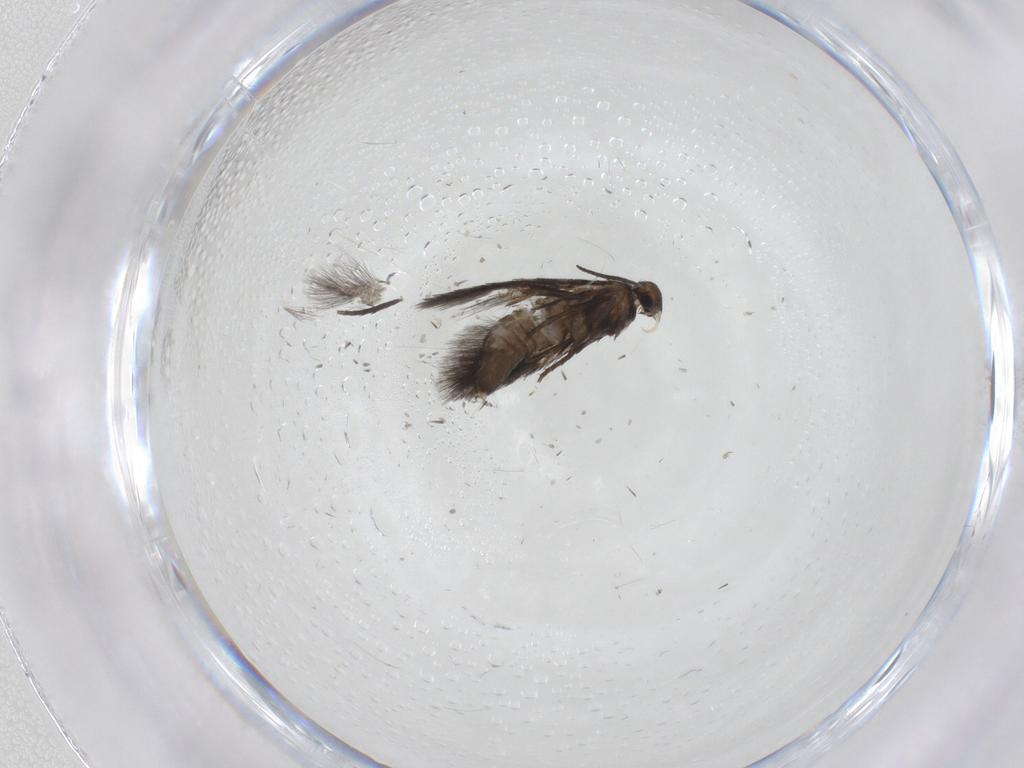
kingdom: Animalia
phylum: Arthropoda
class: Insecta
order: Lepidoptera
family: Heliozelidae
